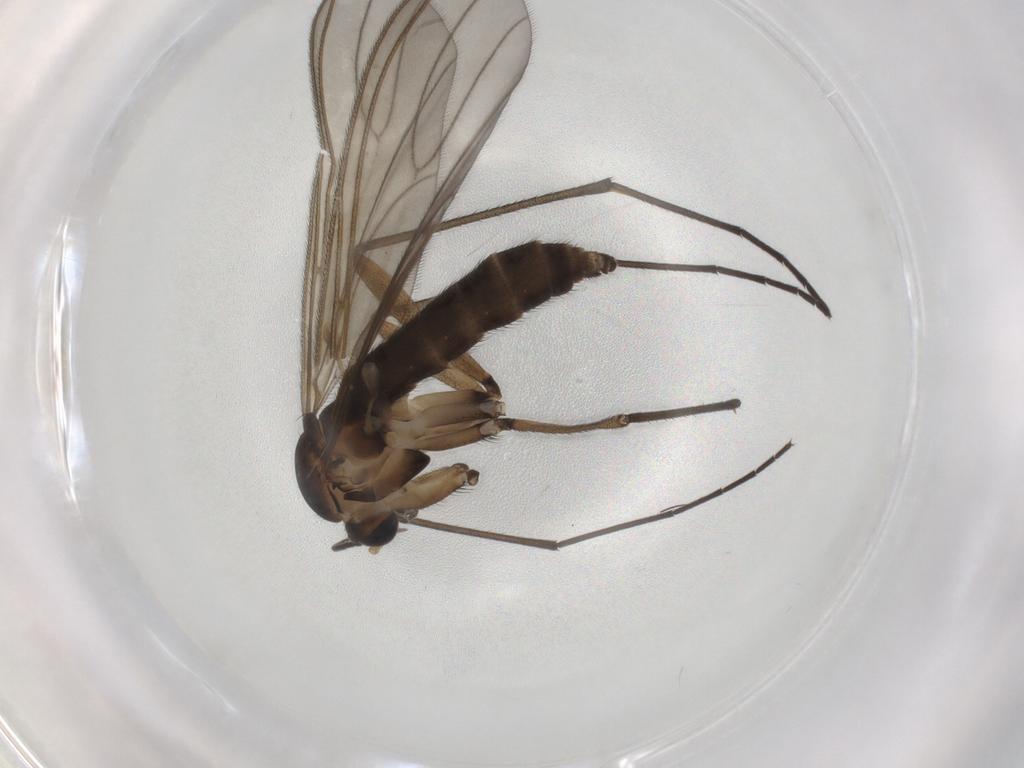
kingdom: Animalia
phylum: Arthropoda
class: Insecta
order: Diptera
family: Sciaridae
